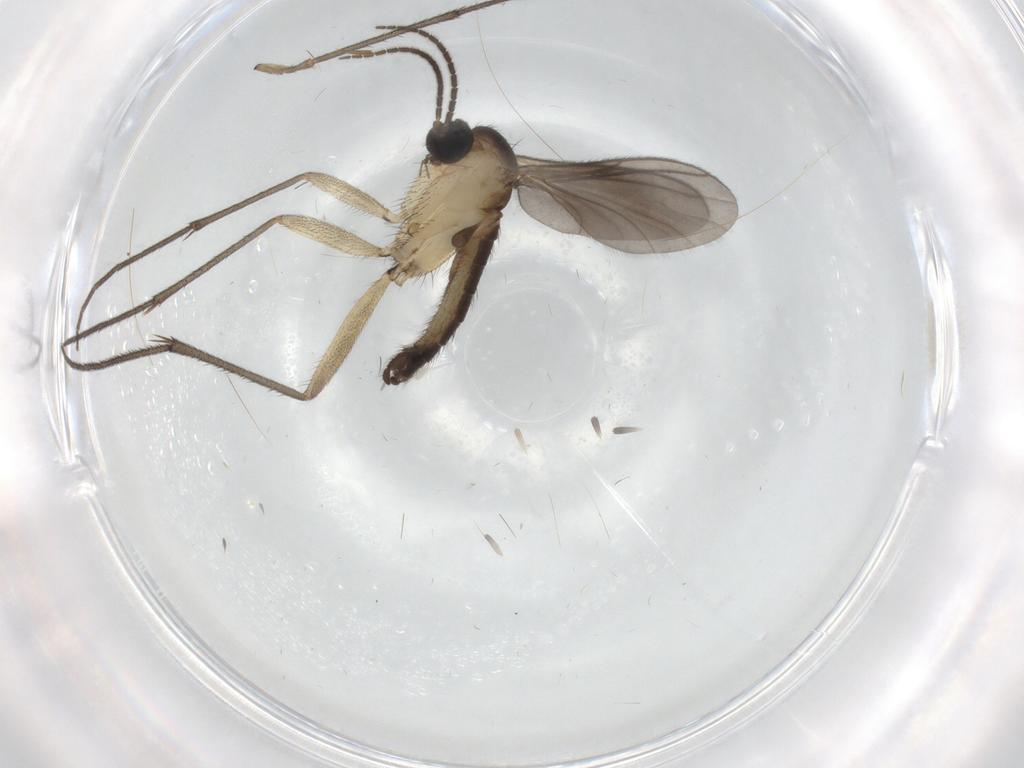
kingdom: Animalia
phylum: Arthropoda
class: Insecta
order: Diptera
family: Sciaridae
